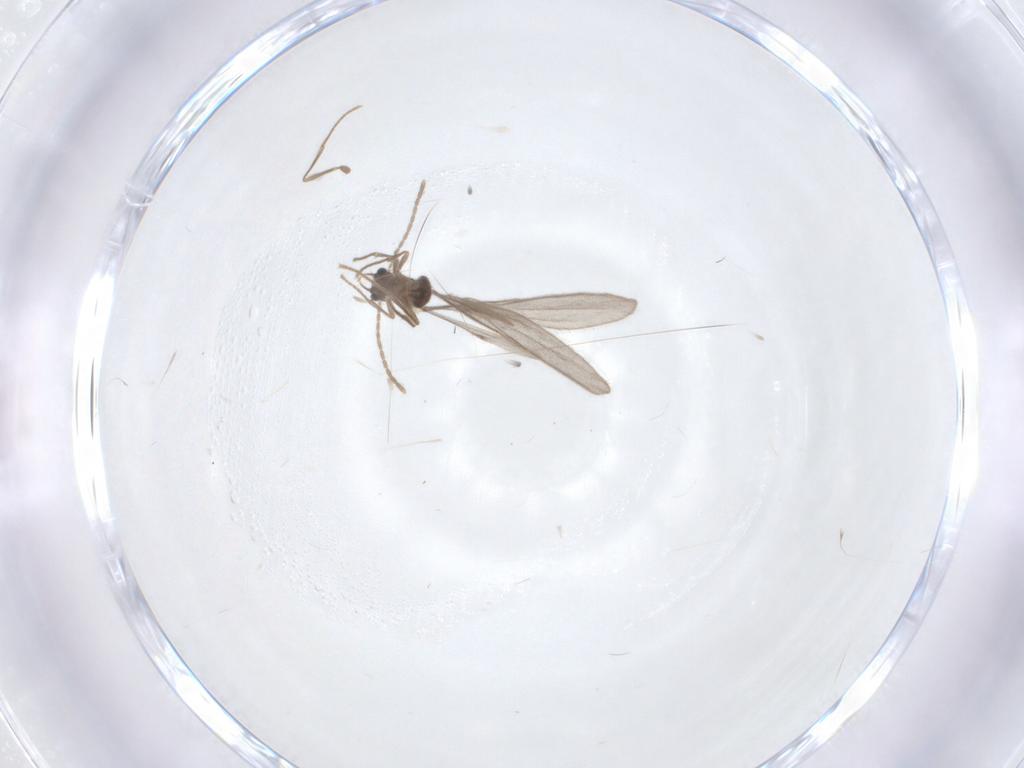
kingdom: Animalia
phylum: Arthropoda
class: Insecta
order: Hymenoptera
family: Formicidae
